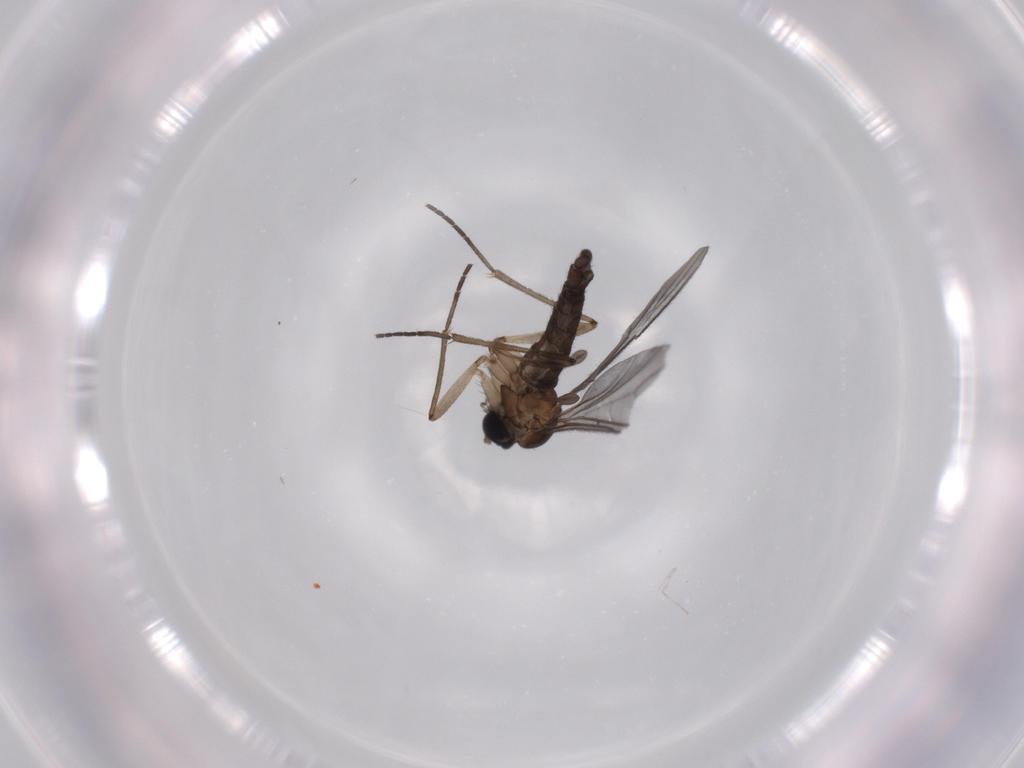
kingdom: Animalia
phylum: Arthropoda
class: Insecta
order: Diptera
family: Sciaridae
